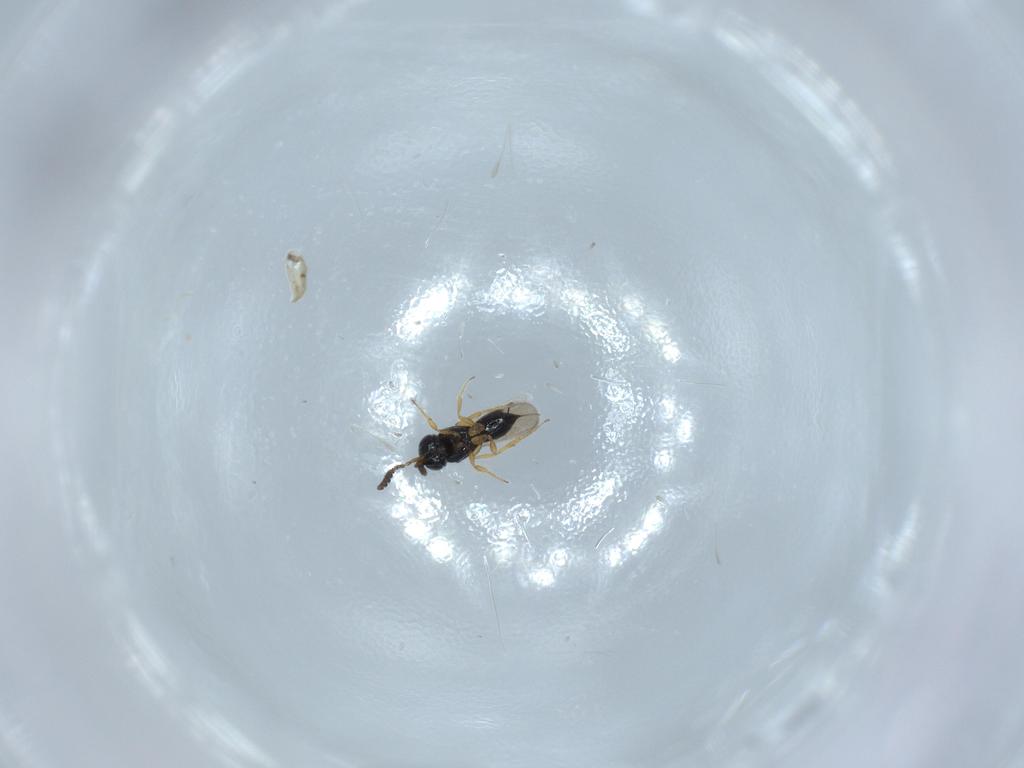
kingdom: Animalia
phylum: Arthropoda
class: Insecta
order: Hymenoptera
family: Scelionidae
